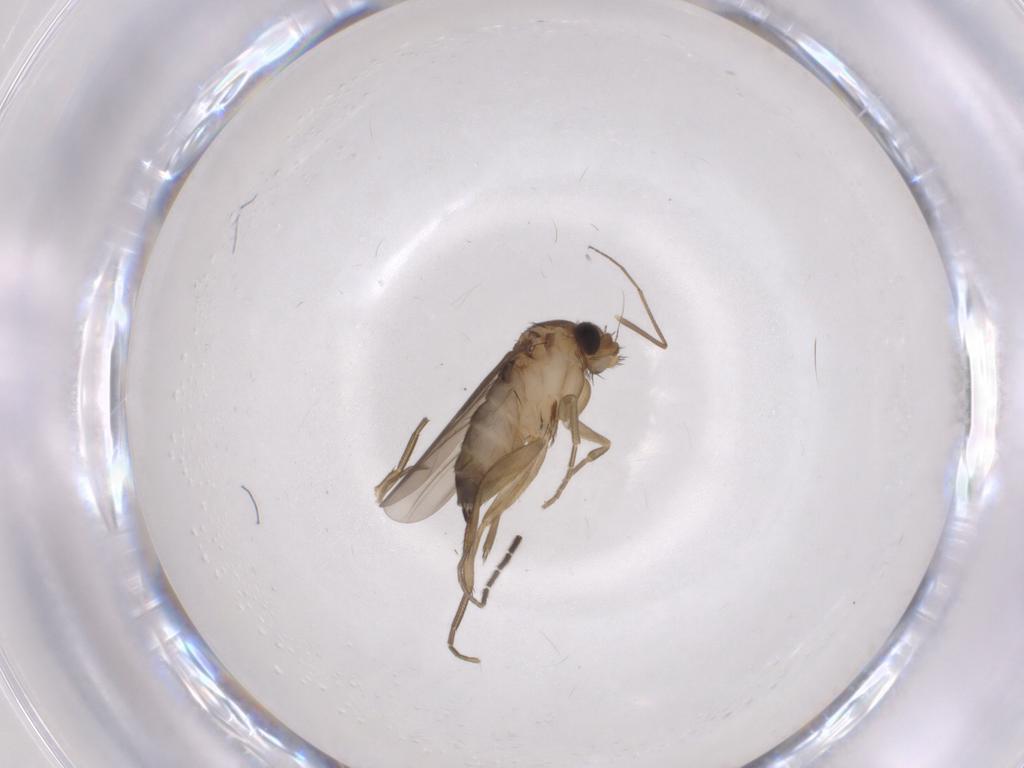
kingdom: Animalia
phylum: Arthropoda
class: Insecta
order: Diptera
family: Phoridae
